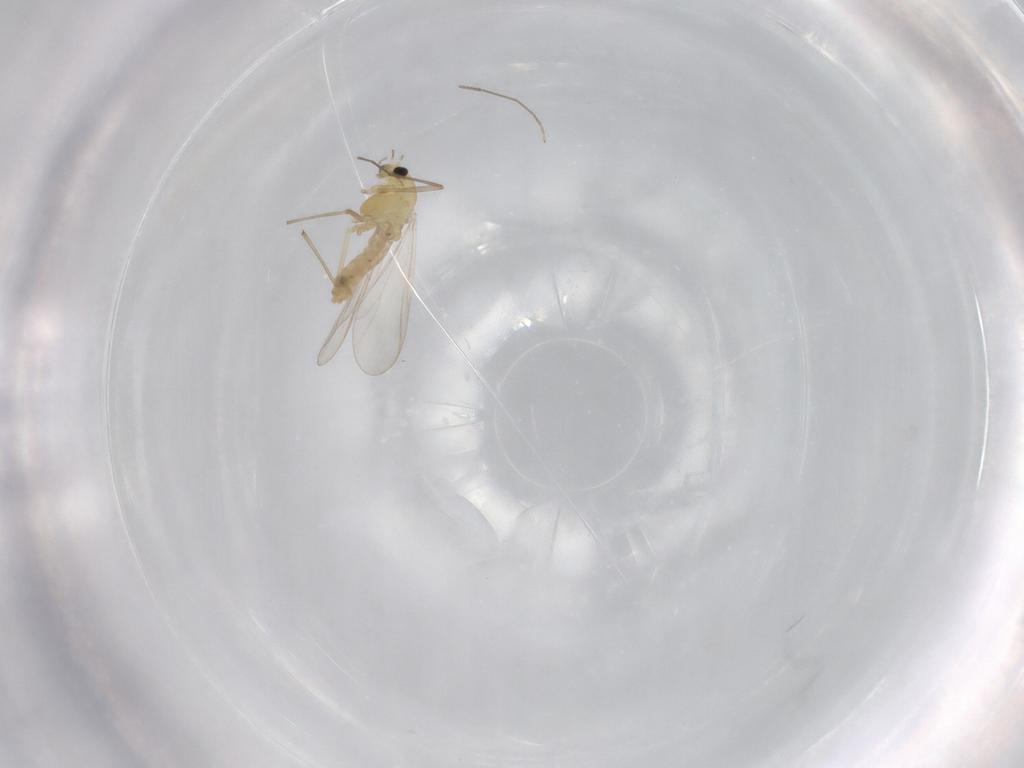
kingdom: Animalia
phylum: Arthropoda
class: Insecta
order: Diptera
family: Chironomidae
